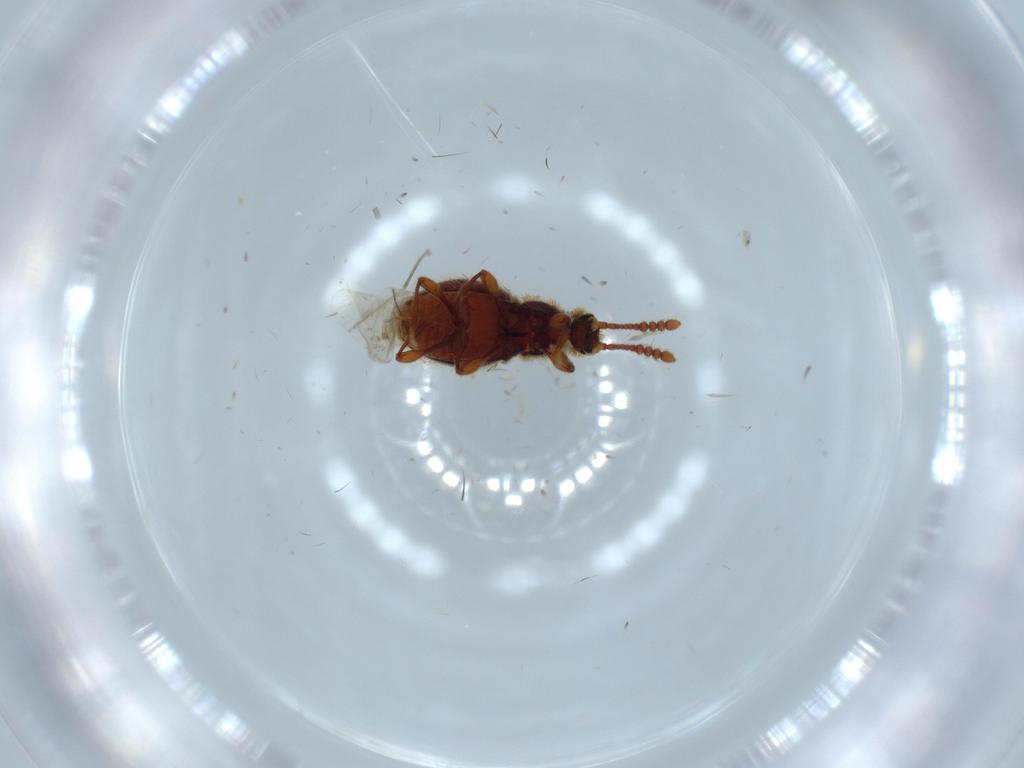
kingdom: Animalia
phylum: Arthropoda
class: Insecta
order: Coleoptera
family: Ptilodactylidae
